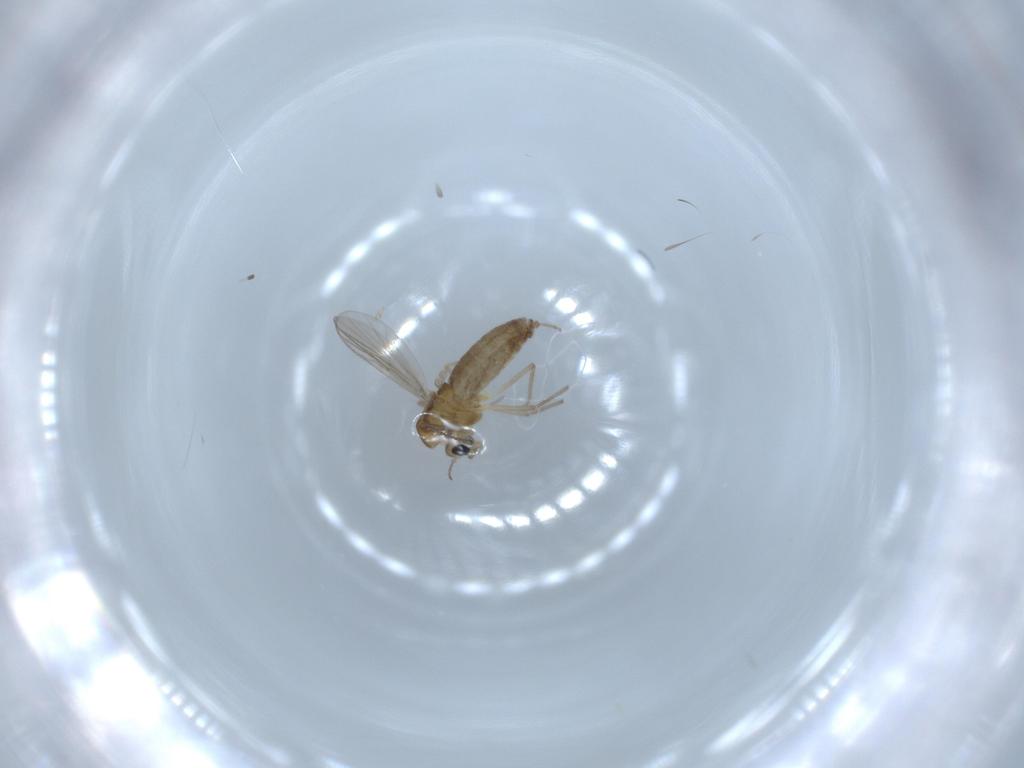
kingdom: Animalia
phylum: Arthropoda
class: Insecta
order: Diptera
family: Chironomidae
